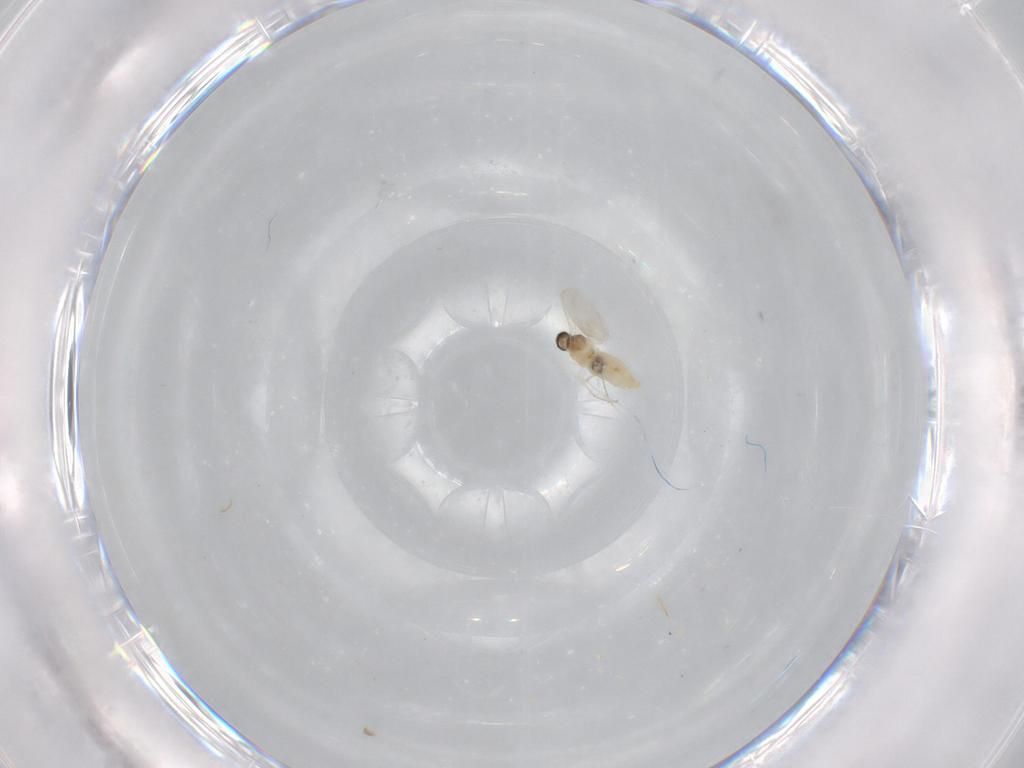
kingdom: Animalia
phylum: Arthropoda
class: Insecta
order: Diptera
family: Cecidomyiidae
